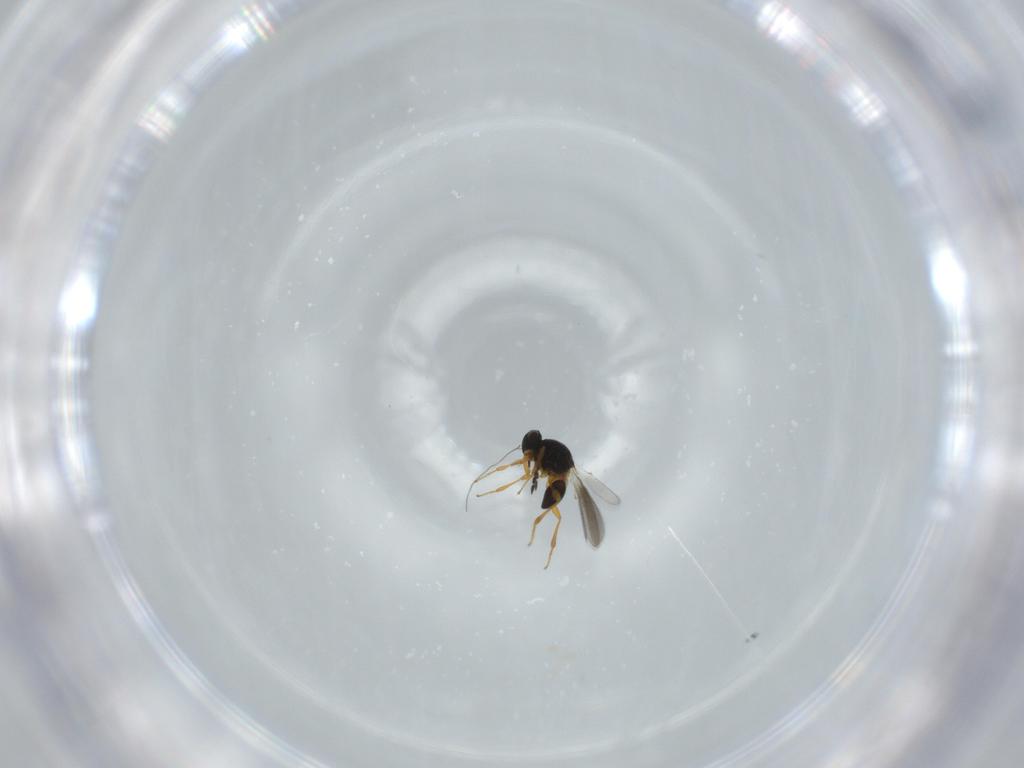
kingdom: Animalia
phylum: Arthropoda
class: Insecta
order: Hymenoptera
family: Platygastridae
